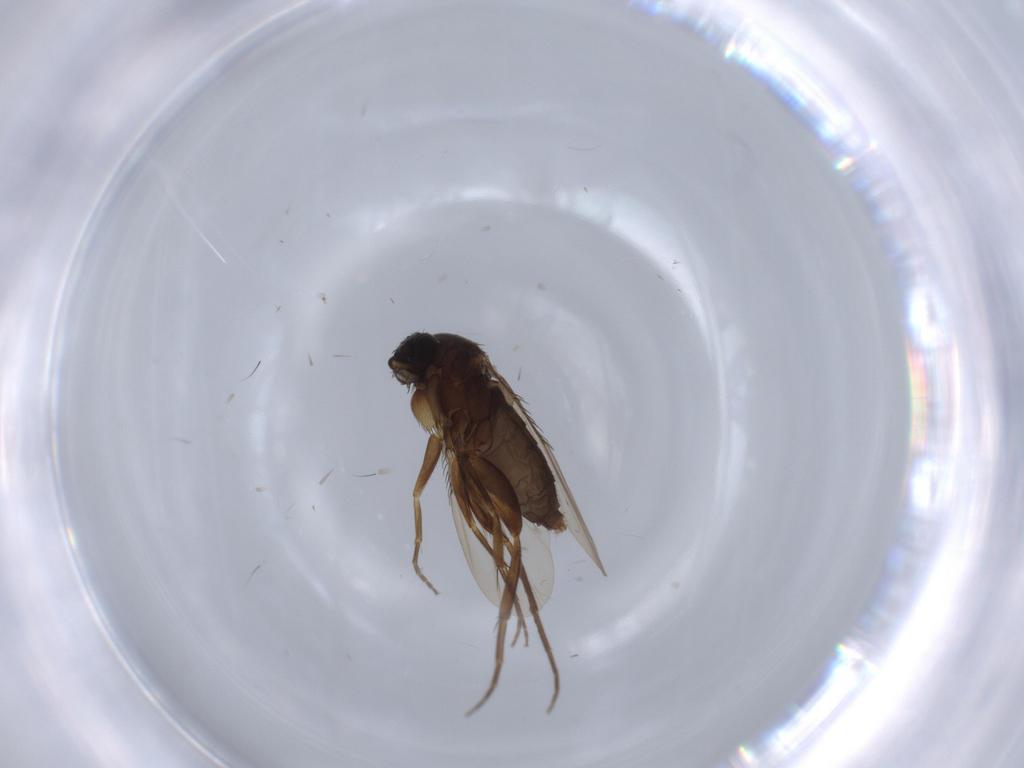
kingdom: Animalia
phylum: Arthropoda
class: Insecta
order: Diptera
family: Phoridae
